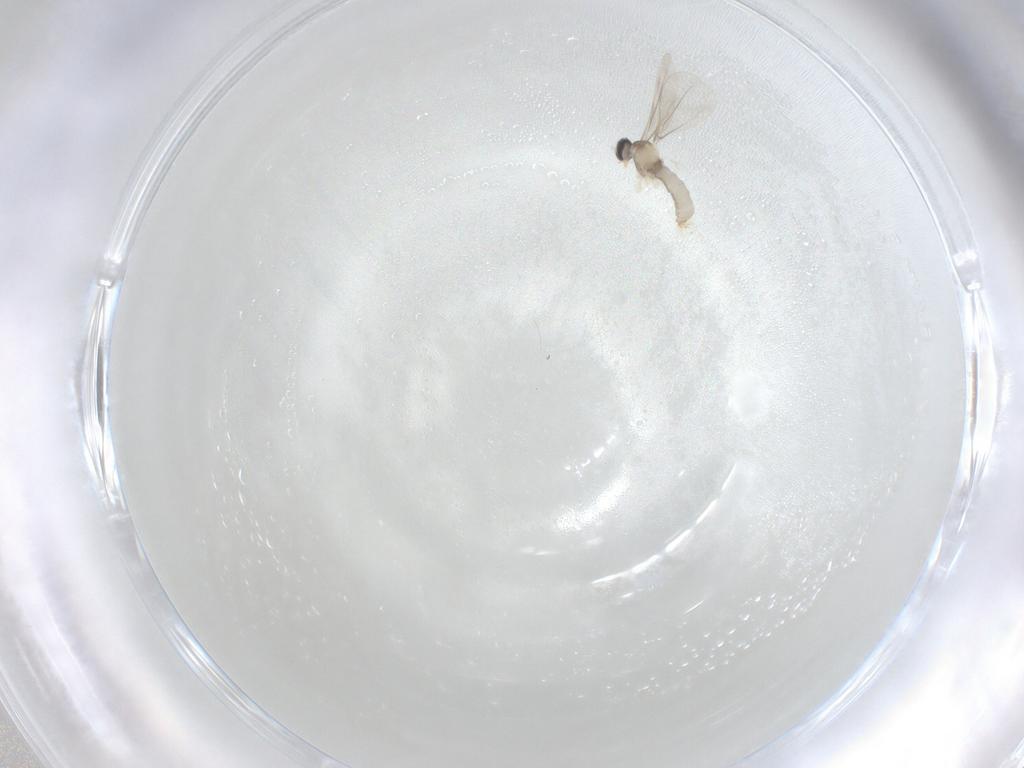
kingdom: Animalia
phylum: Arthropoda
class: Insecta
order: Diptera
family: Cecidomyiidae
